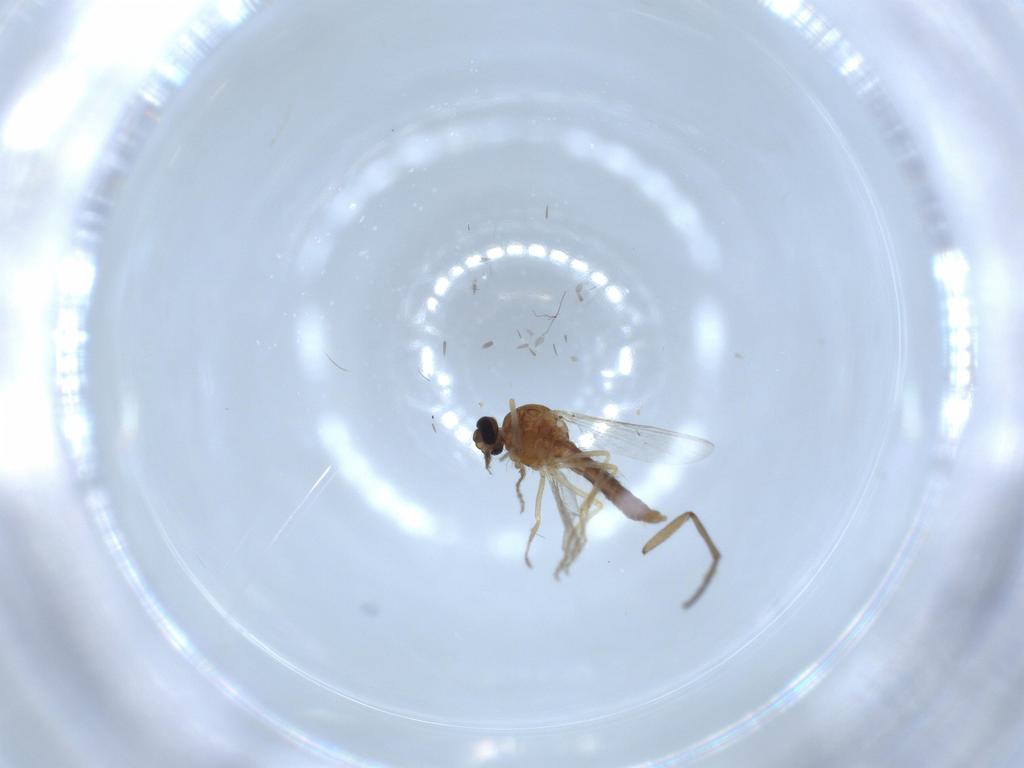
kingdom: Animalia
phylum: Arthropoda
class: Insecta
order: Diptera
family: Ceratopogonidae
